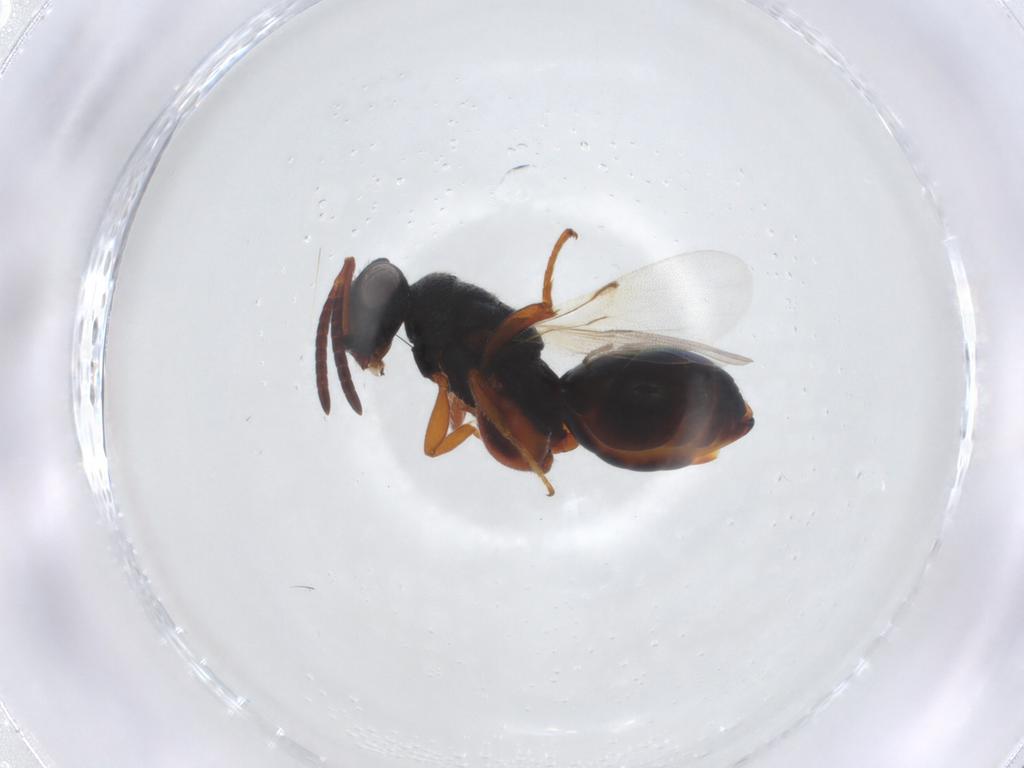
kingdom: Animalia
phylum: Arthropoda
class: Insecta
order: Hymenoptera
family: Chalcididae
